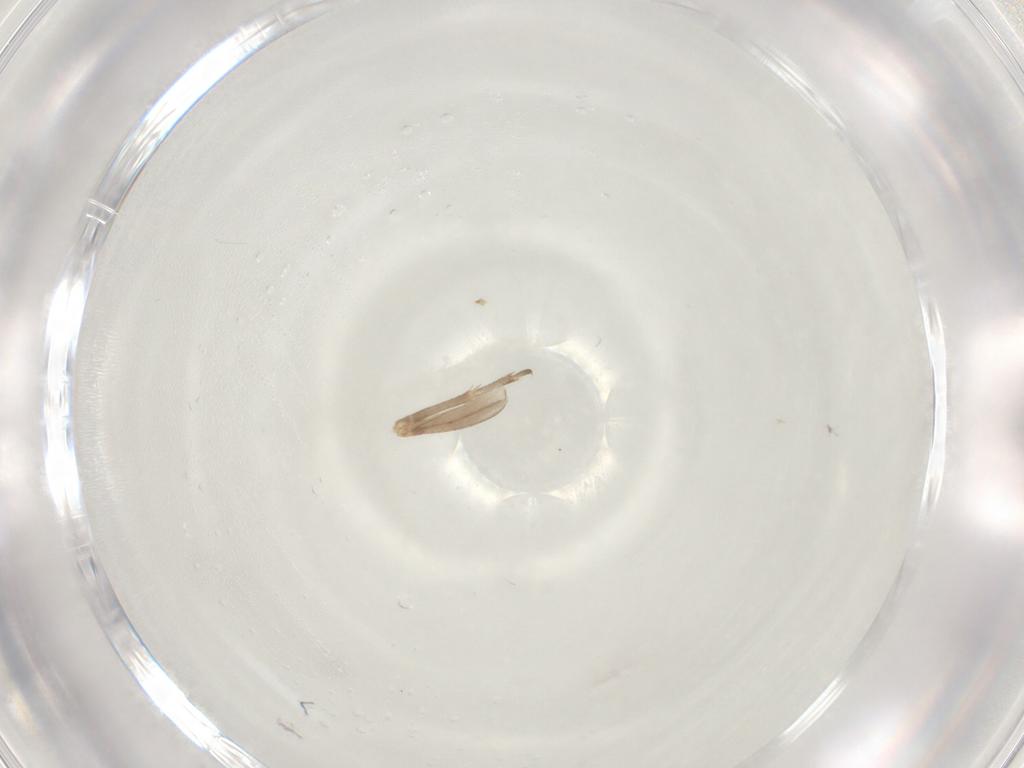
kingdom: Animalia
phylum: Arthropoda
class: Insecta
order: Orthoptera
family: Mogoplistidae
